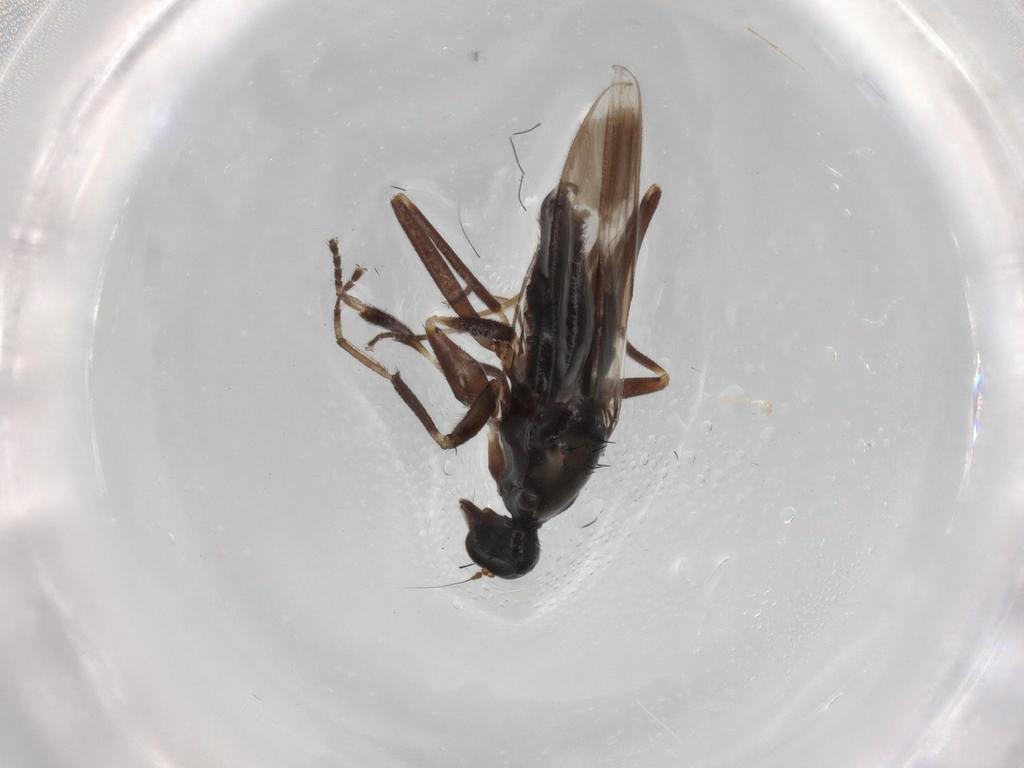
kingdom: Animalia
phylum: Arthropoda
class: Insecta
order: Diptera
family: Hybotidae
